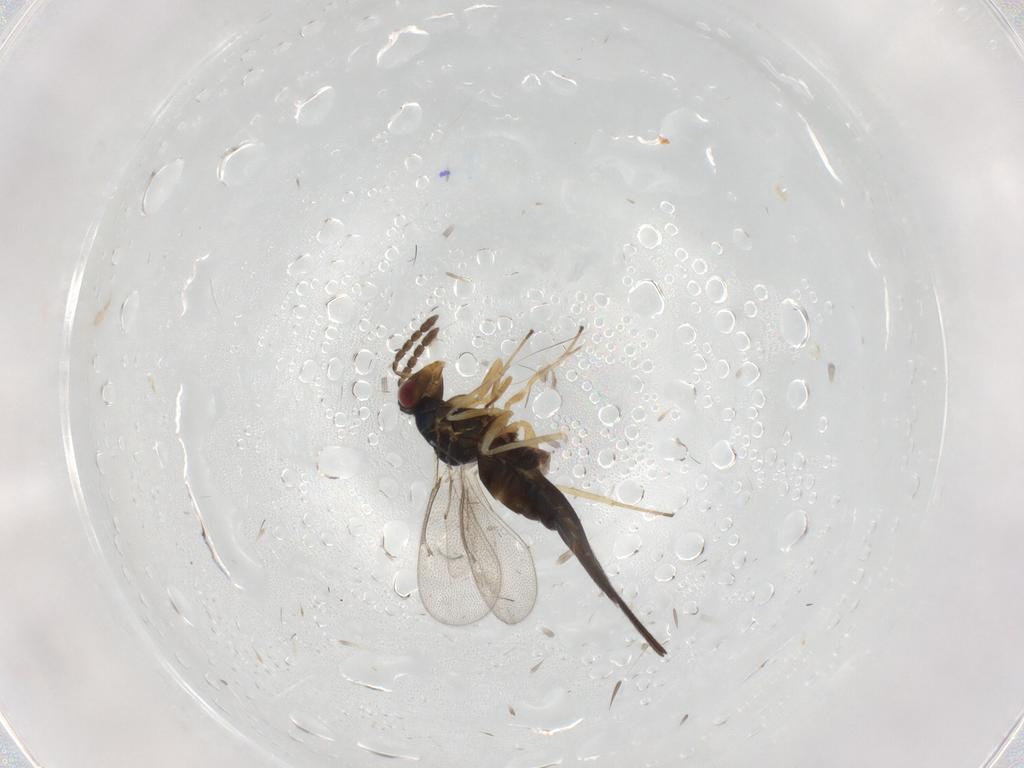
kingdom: Animalia
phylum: Arthropoda
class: Insecta
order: Hymenoptera
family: Eulophidae
